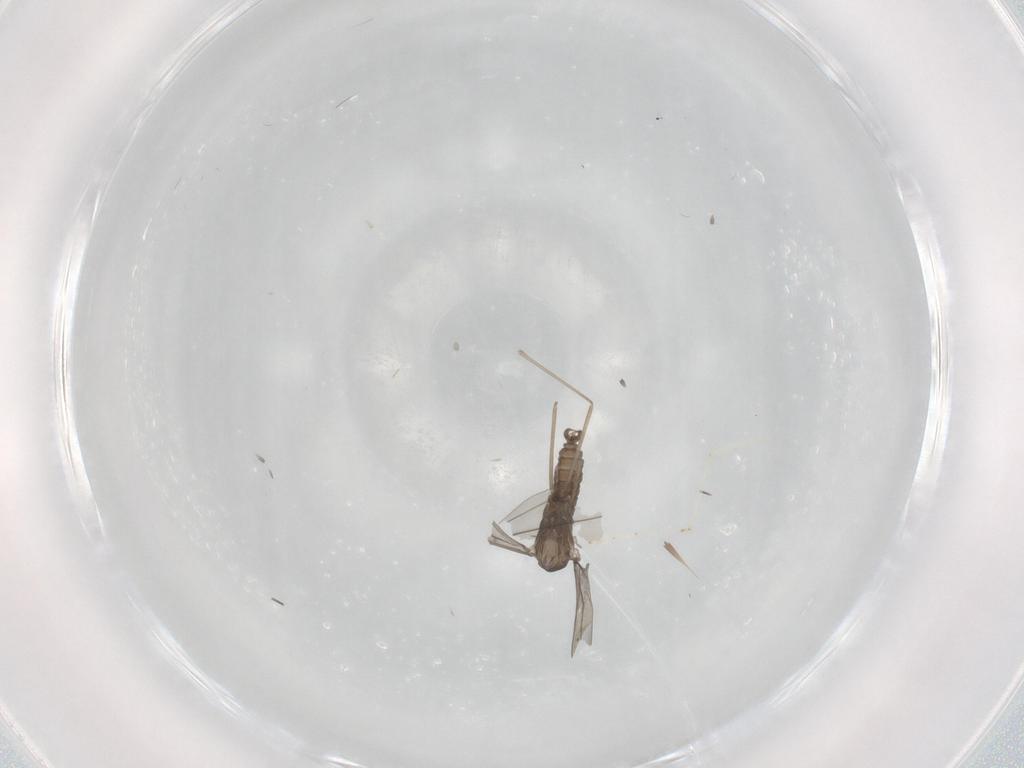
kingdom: Animalia
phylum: Arthropoda
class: Insecta
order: Diptera
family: Cecidomyiidae
